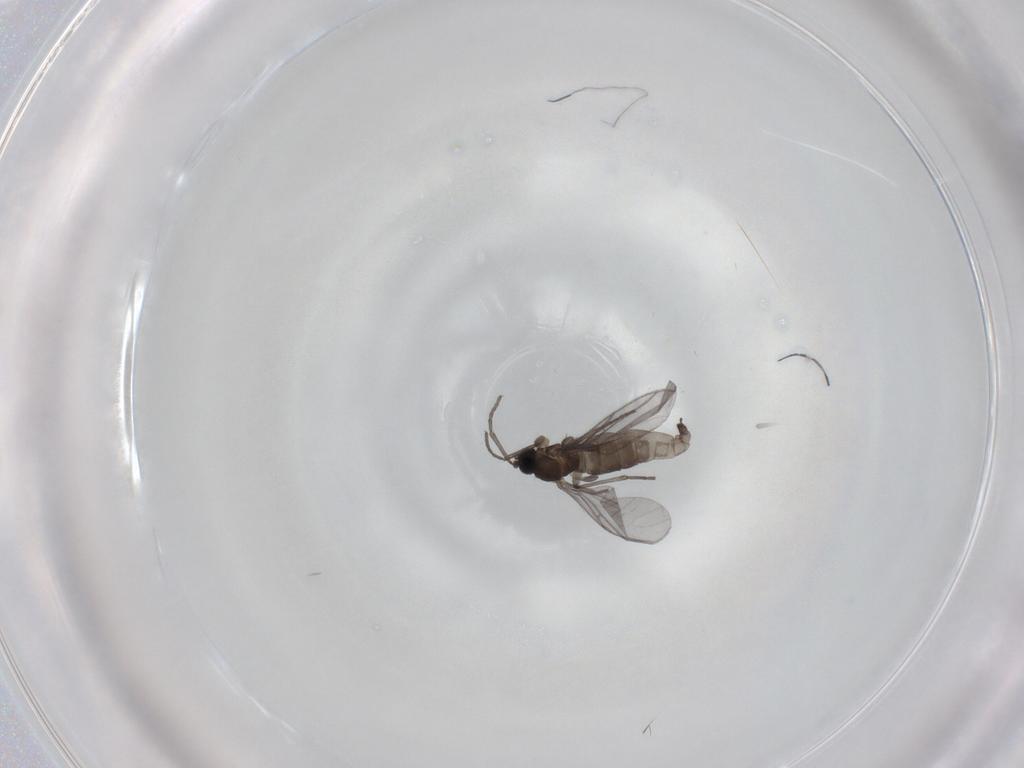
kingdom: Animalia
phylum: Arthropoda
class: Insecta
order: Diptera
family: Sciaridae
